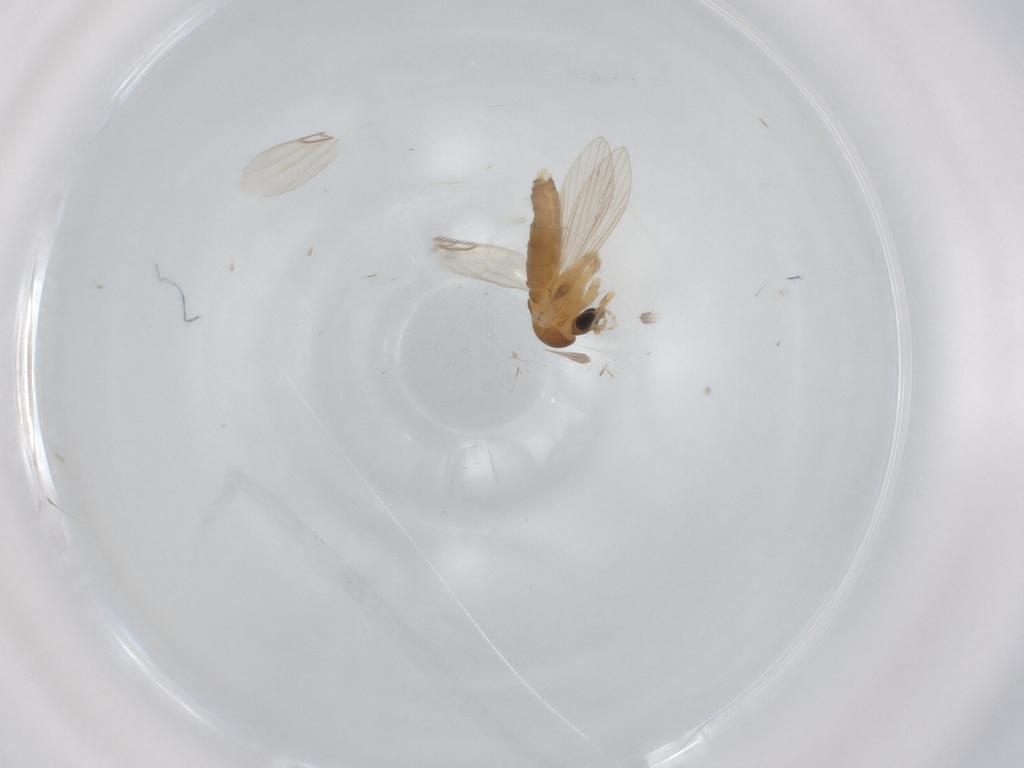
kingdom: Animalia
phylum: Arthropoda
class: Insecta
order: Diptera
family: Psychodidae
